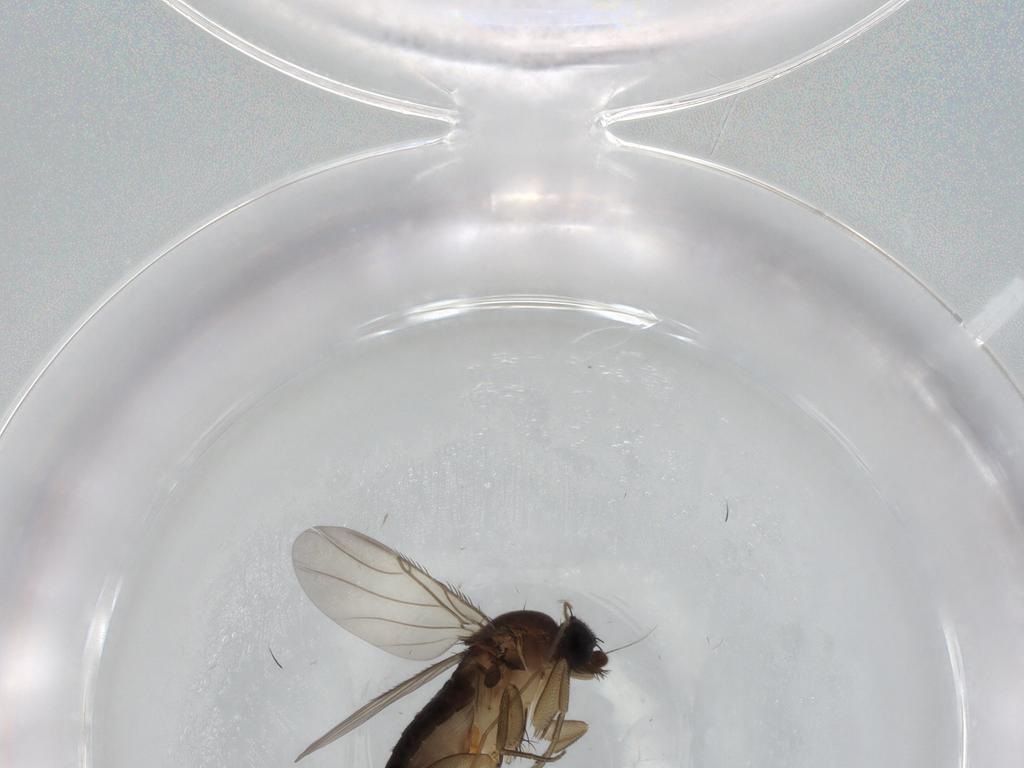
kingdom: Animalia
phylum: Arthropoda
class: Insecta
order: Diptera
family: Phoridae
